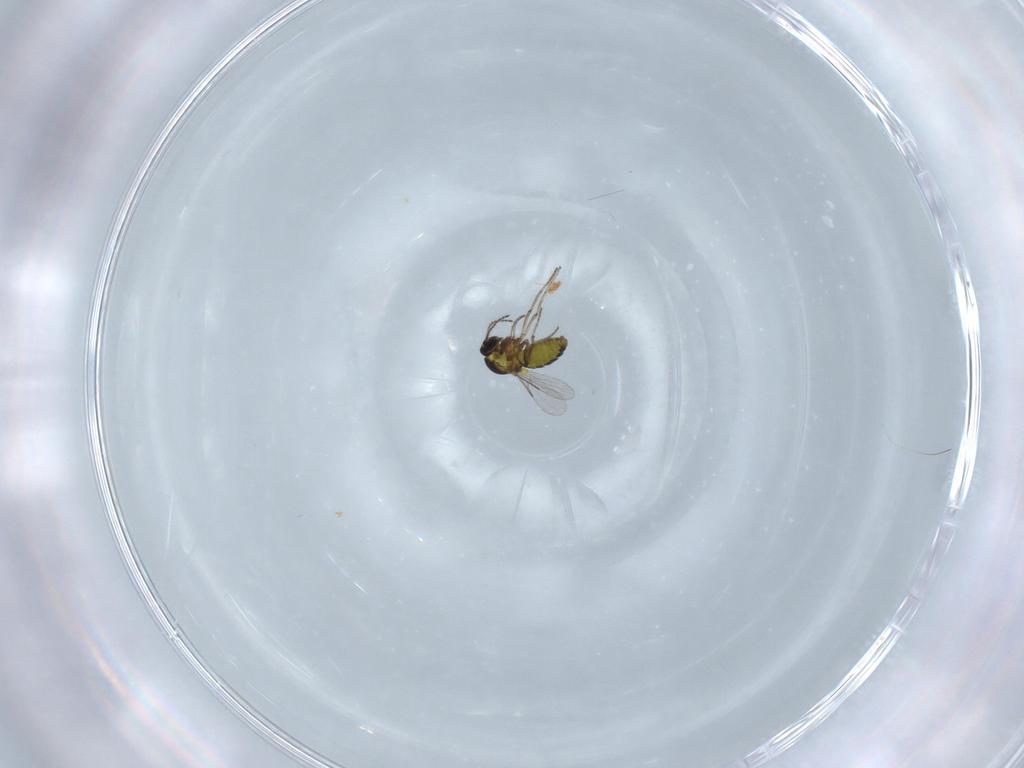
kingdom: Animalia
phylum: Arthropoda
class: Insecta
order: Diptera
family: Ceratopogonidae
